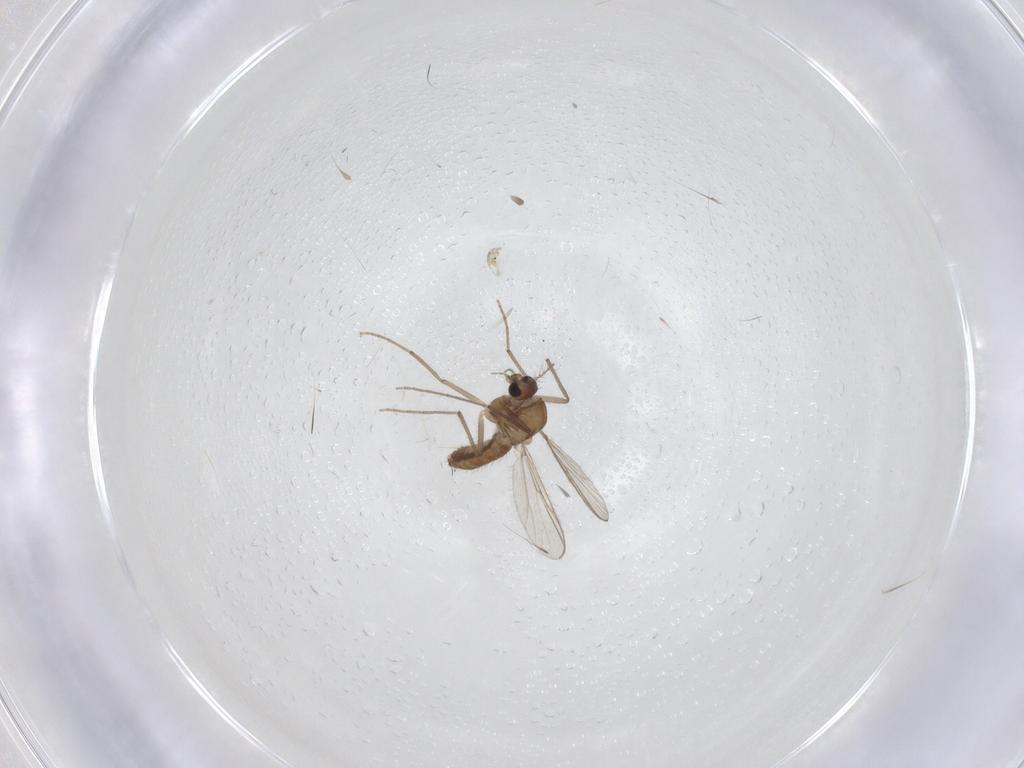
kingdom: Animalia
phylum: Arthropoda
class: Insecta
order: Diptera
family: Chironomidae
